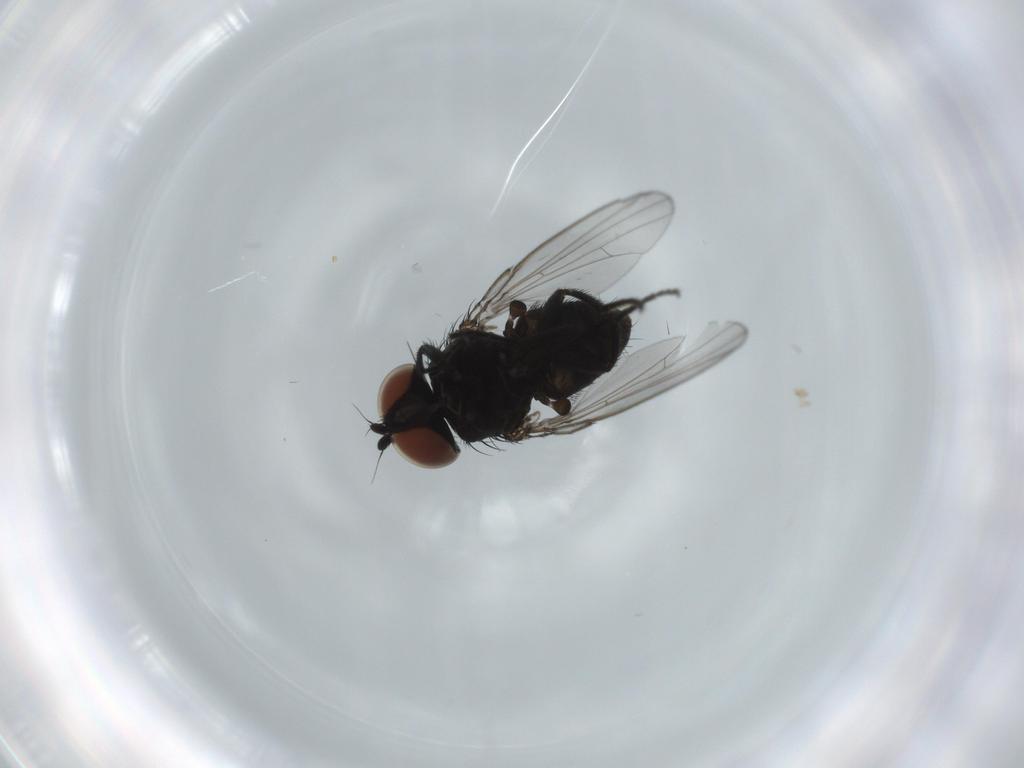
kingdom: Animalia
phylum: Arthropoda
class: Insecta
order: Diptera
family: Milichiidae
